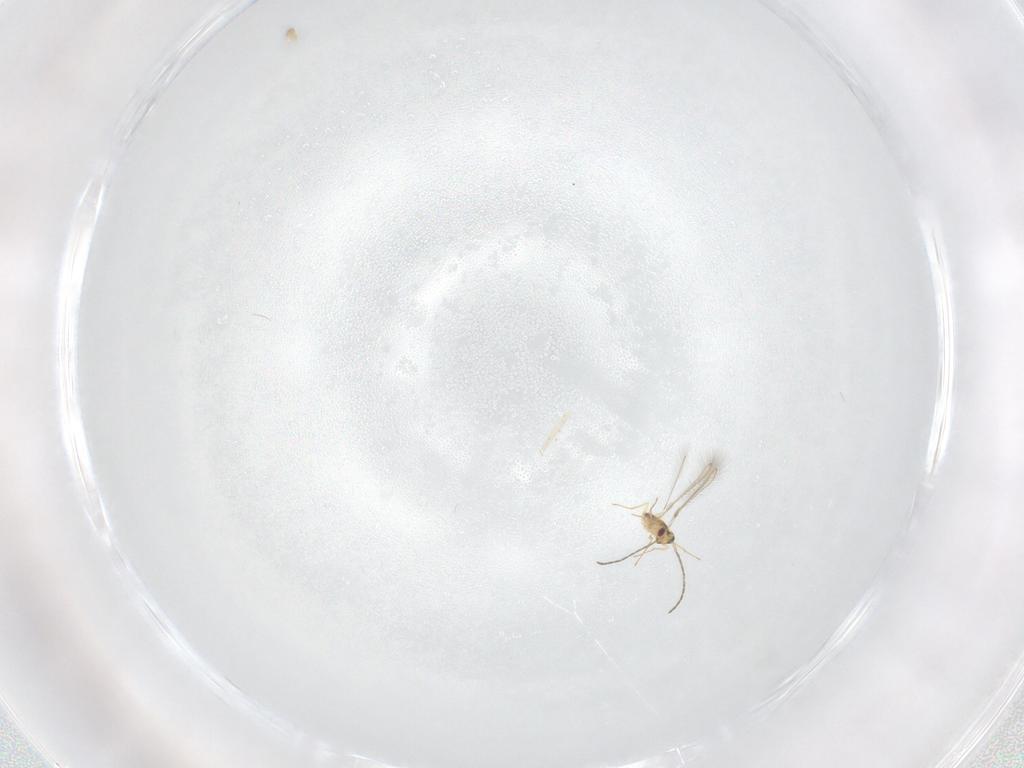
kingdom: Animalia
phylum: Arthropoda
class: Insecta
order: Hymenoptera
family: Mymaridae
